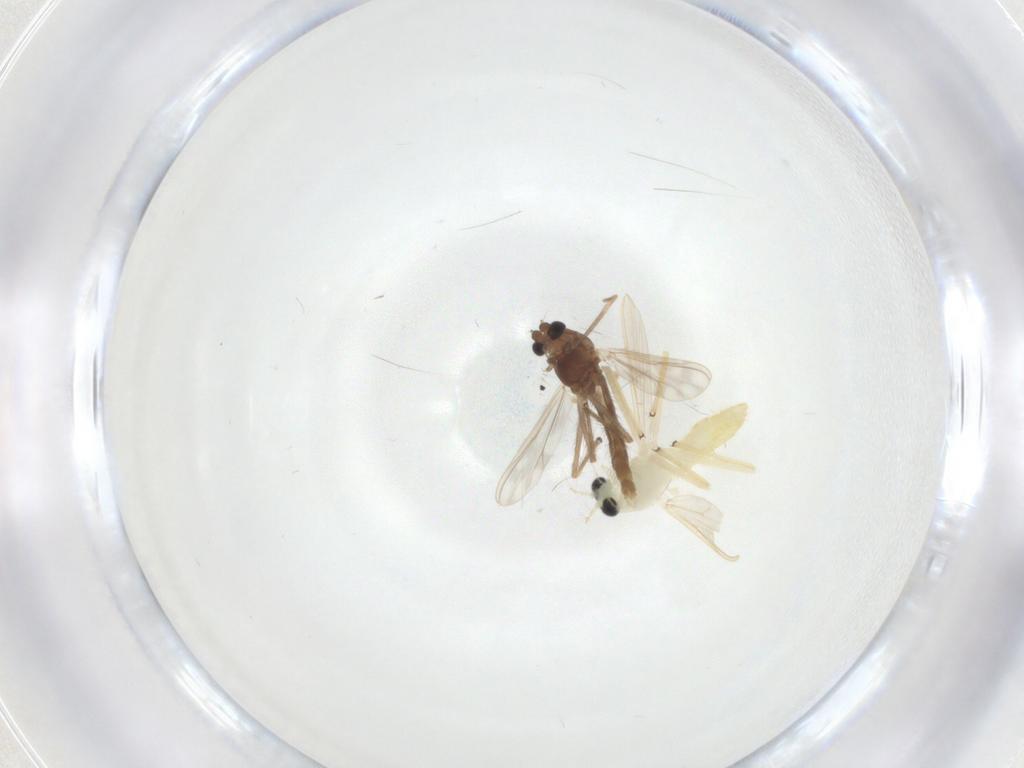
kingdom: Animalia
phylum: Arthropoda
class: Insecta
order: Diptera
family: Chironomidae
